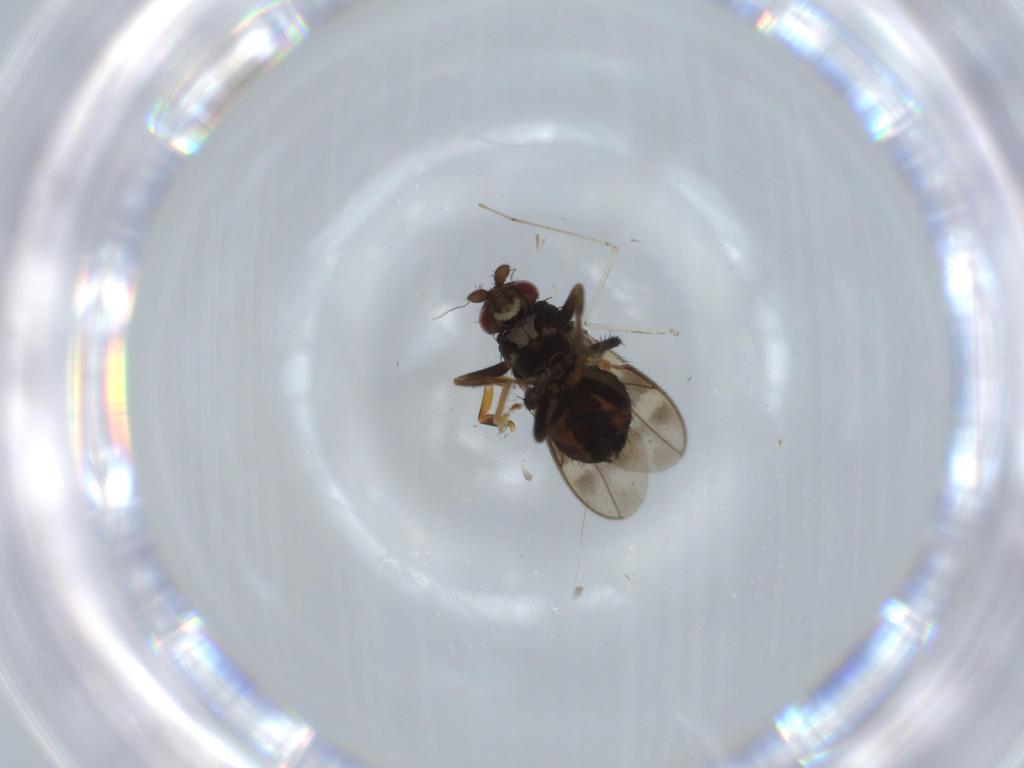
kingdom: Animalia
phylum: Arthropoda
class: Insecta
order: Diptera
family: Cecidomyiidae
